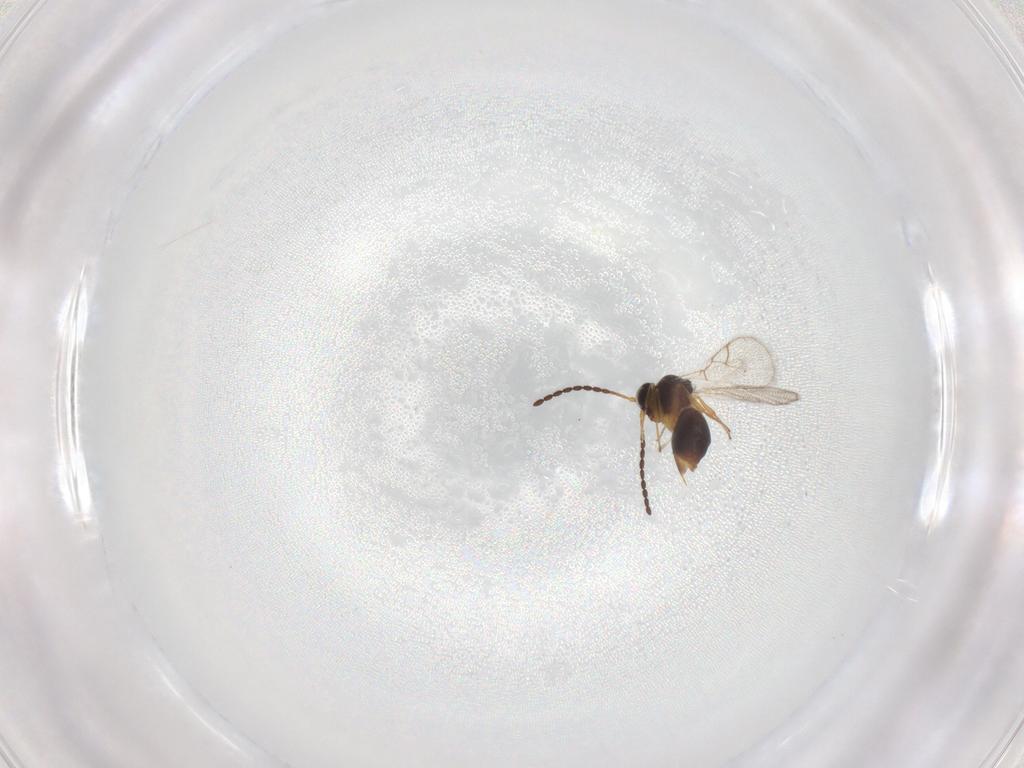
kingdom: Animalia
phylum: Arthropoda
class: Insecta
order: Hymenoptera
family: Figitidae
